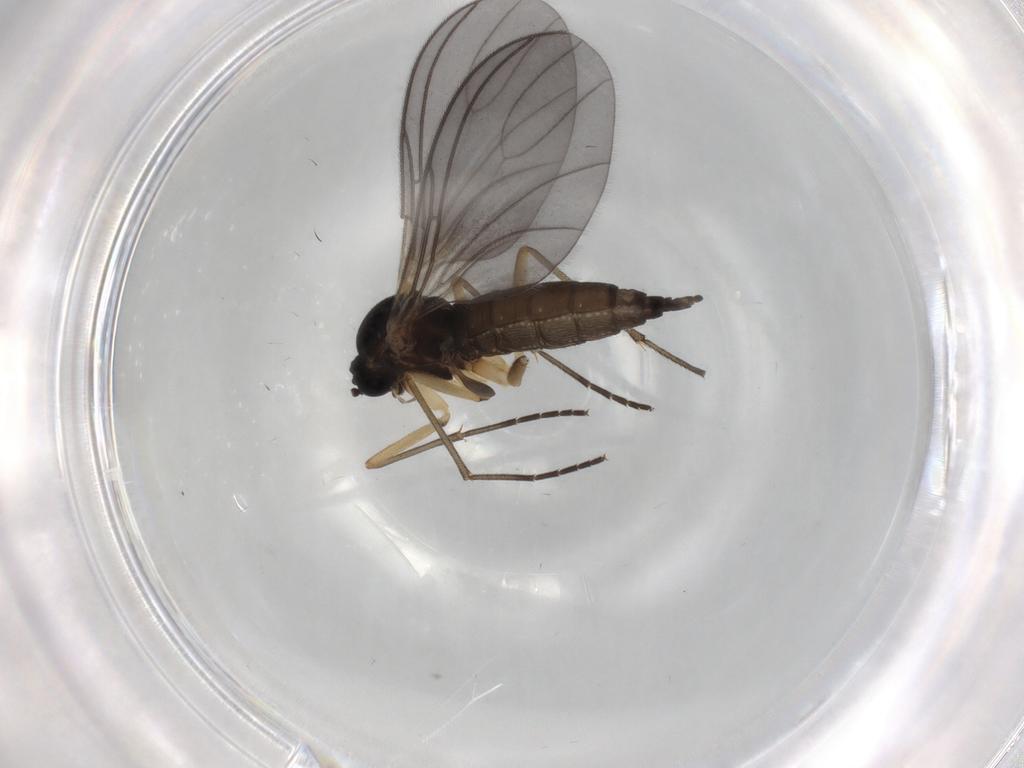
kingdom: Animalia
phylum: Arthropoda
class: Insecta
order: Diptera
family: Sciaridae
